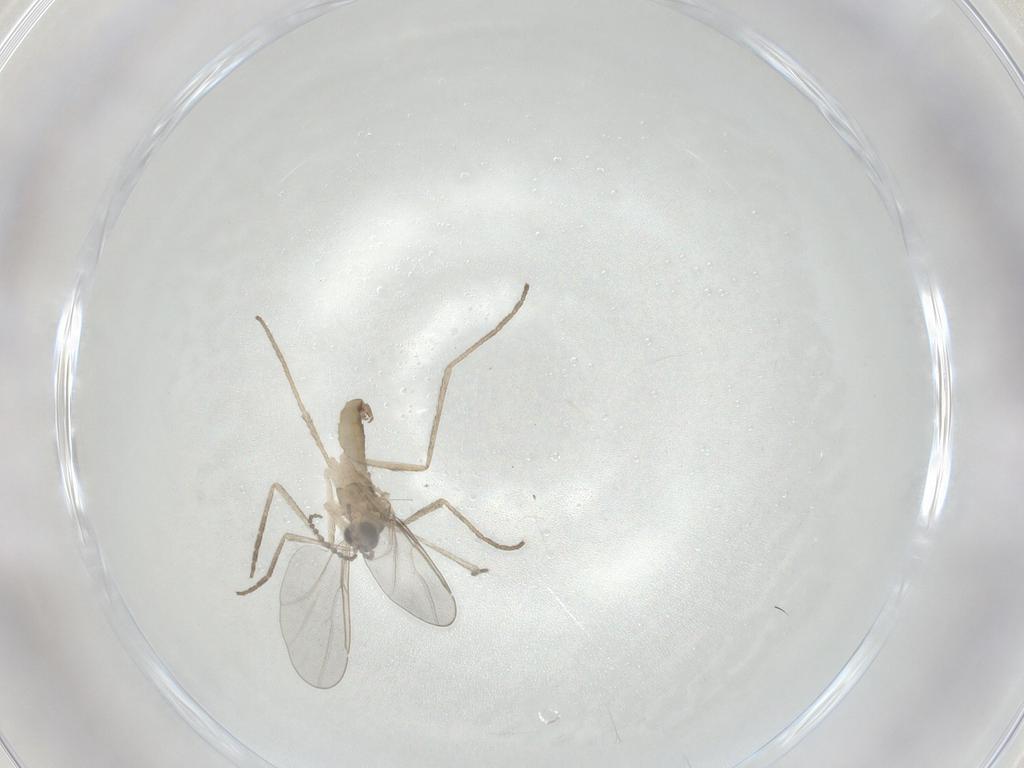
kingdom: Animalia
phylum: Arthropoda
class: Insecta
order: Diptera
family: Cecidomyiidae
